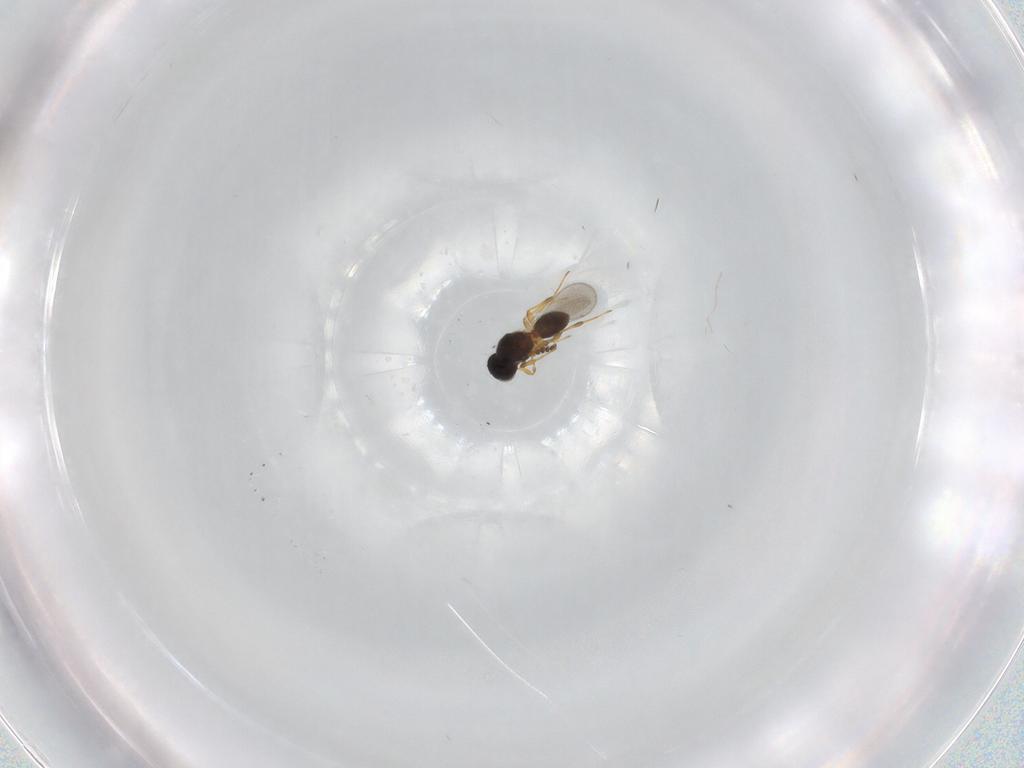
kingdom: Animalia
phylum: Arthropoda
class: Insecta
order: Hymenoptera
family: Platygastridae
